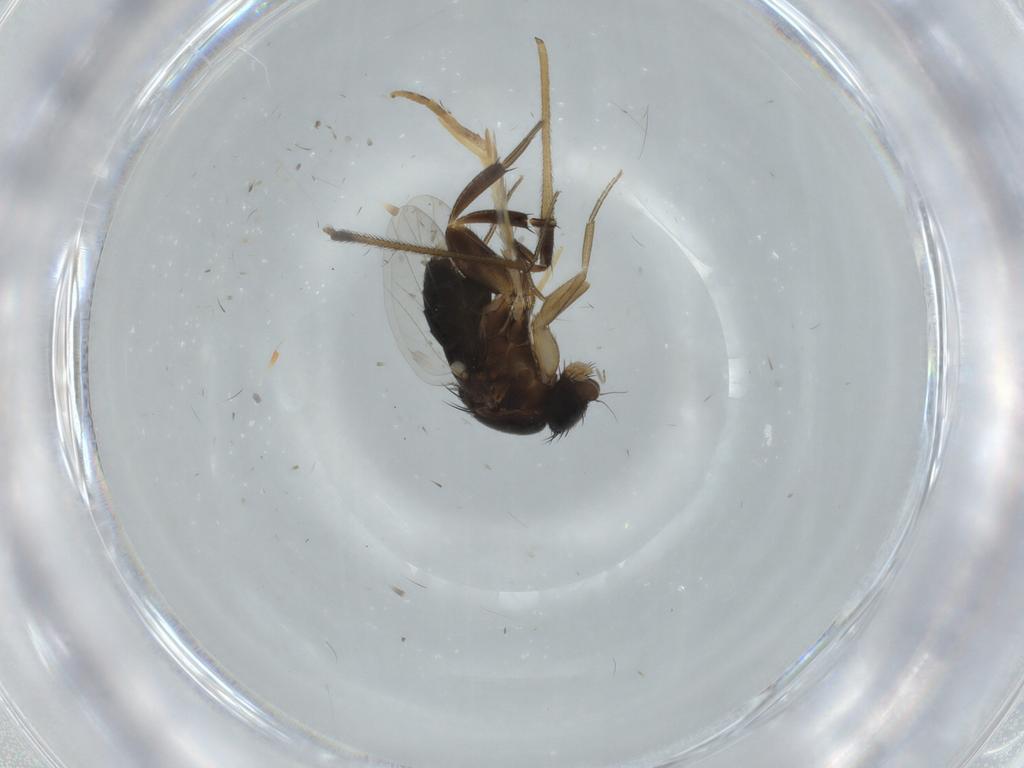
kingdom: Animalia
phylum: Arthropoda
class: Insecta
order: Diptera
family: Phoridae
